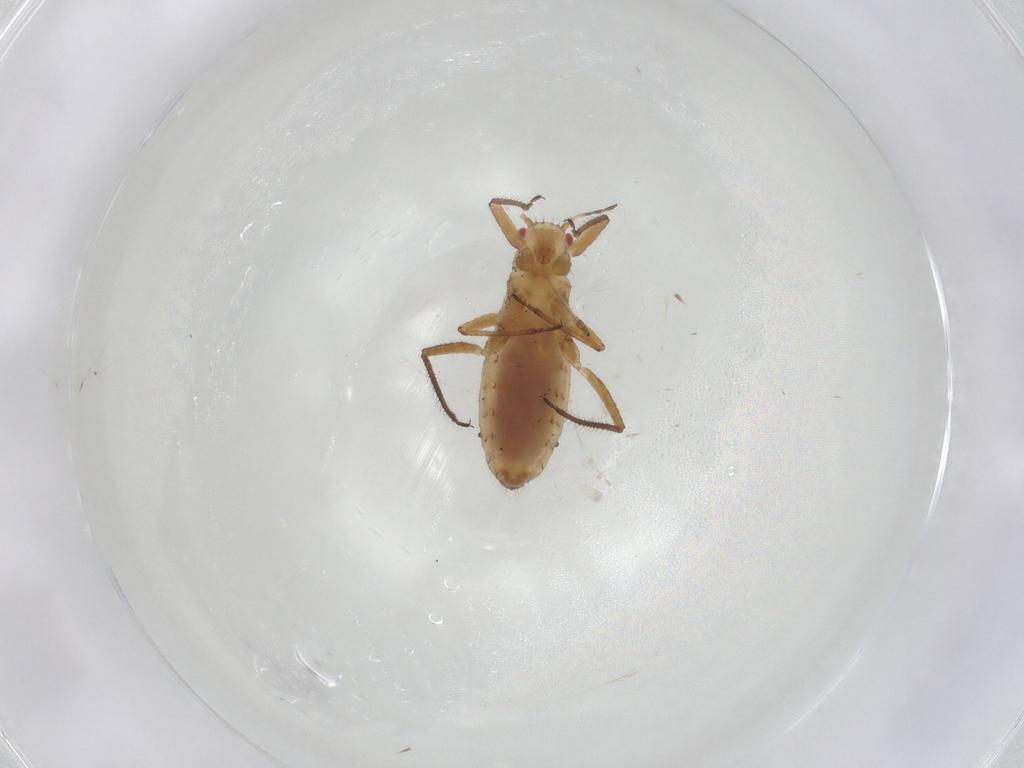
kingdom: Animalia
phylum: Arthropoda
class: Insecta
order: Hemiptera
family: Aphididae
